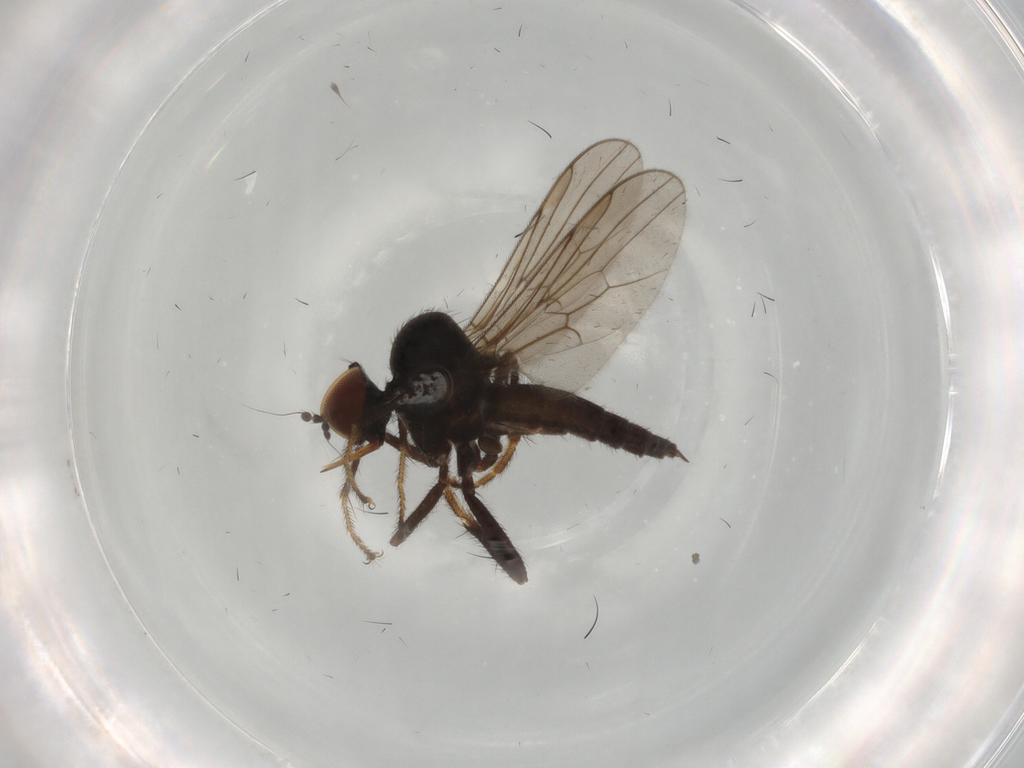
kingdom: Animalia
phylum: Arthropoda
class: Insecta
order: Diptera
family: Hybotidae
